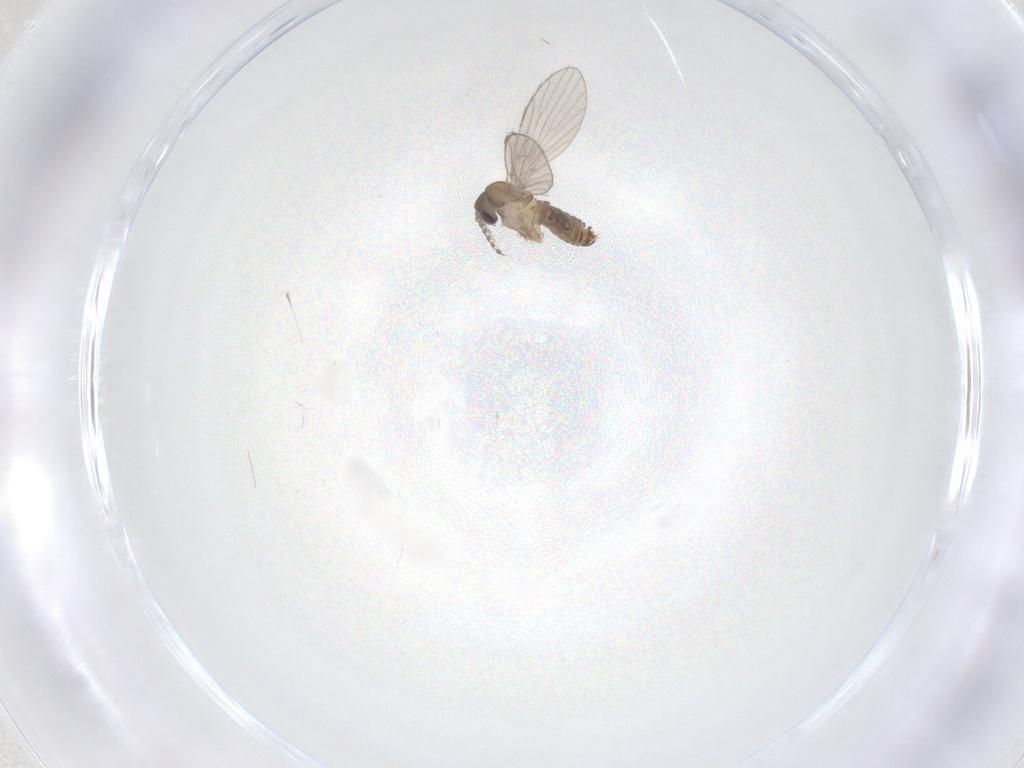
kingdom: Animalia
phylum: Arthropoda
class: Insecta
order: Diptera
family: Psychodidae
